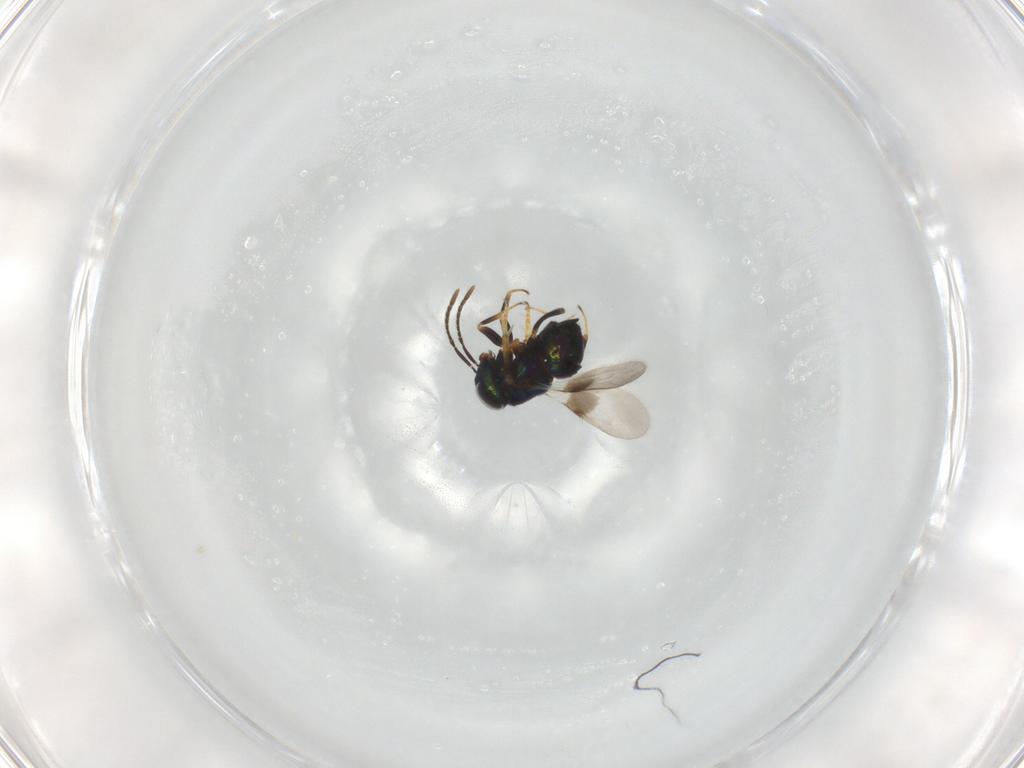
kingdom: Animalia
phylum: Arthropoda
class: Insecta
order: Hymenoptera
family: Encyrtidae
